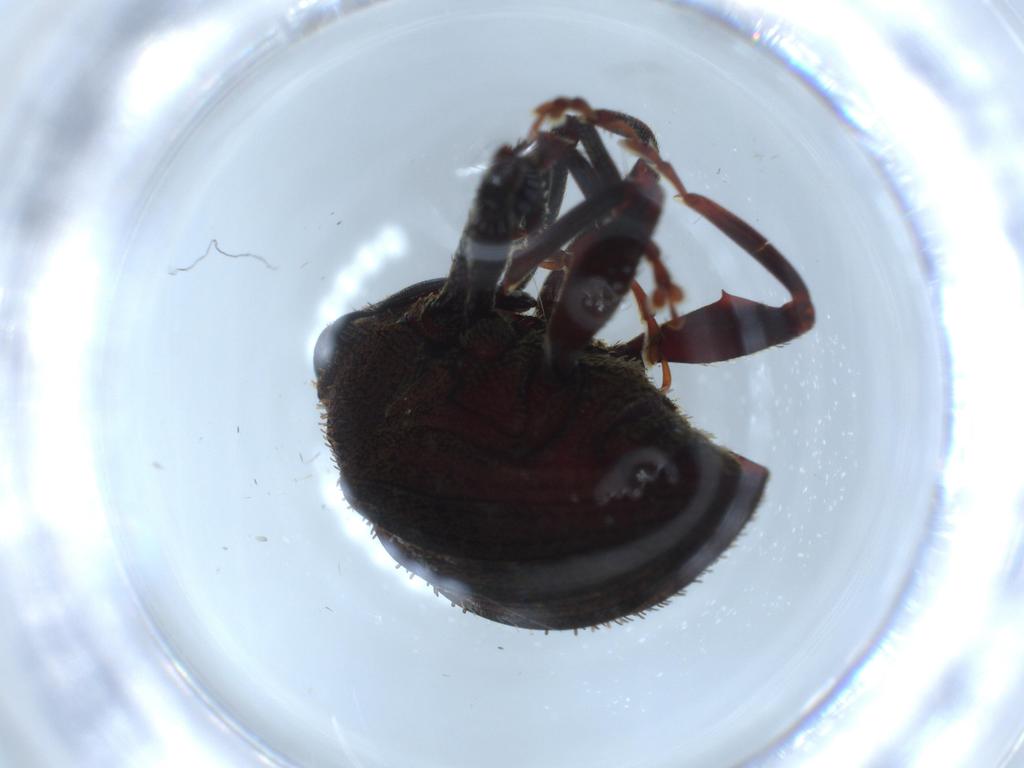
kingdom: Animalia
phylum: Arthropoda
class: Insecta
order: Coleoptera
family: Curculionidae
